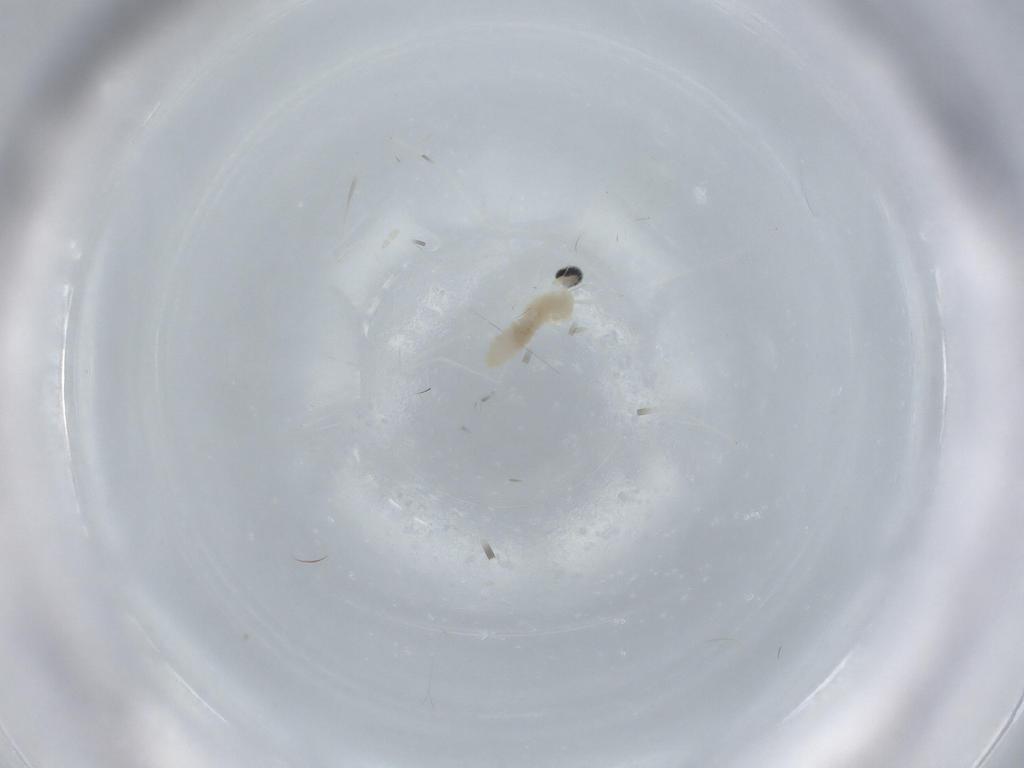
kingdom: Animalia
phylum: Arthropoda
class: Insecta
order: Diptera
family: Cecidomyiidae
